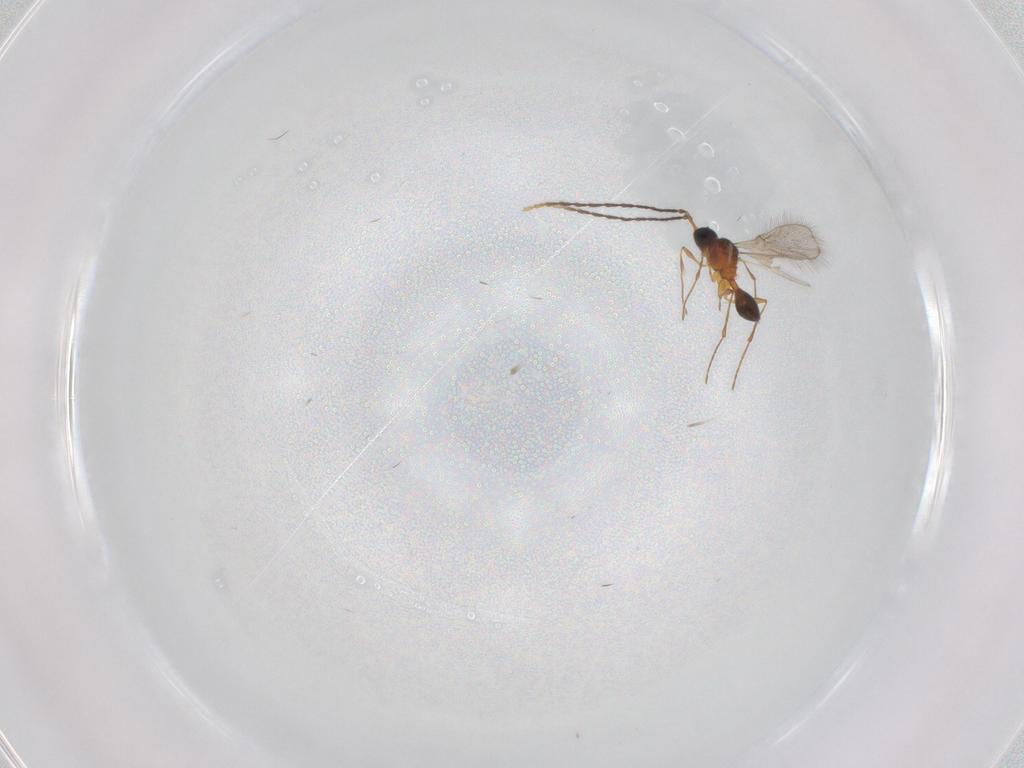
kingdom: Animalia
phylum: Arthropoda
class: Insecta
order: Hymenoptera
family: Diapriidae
